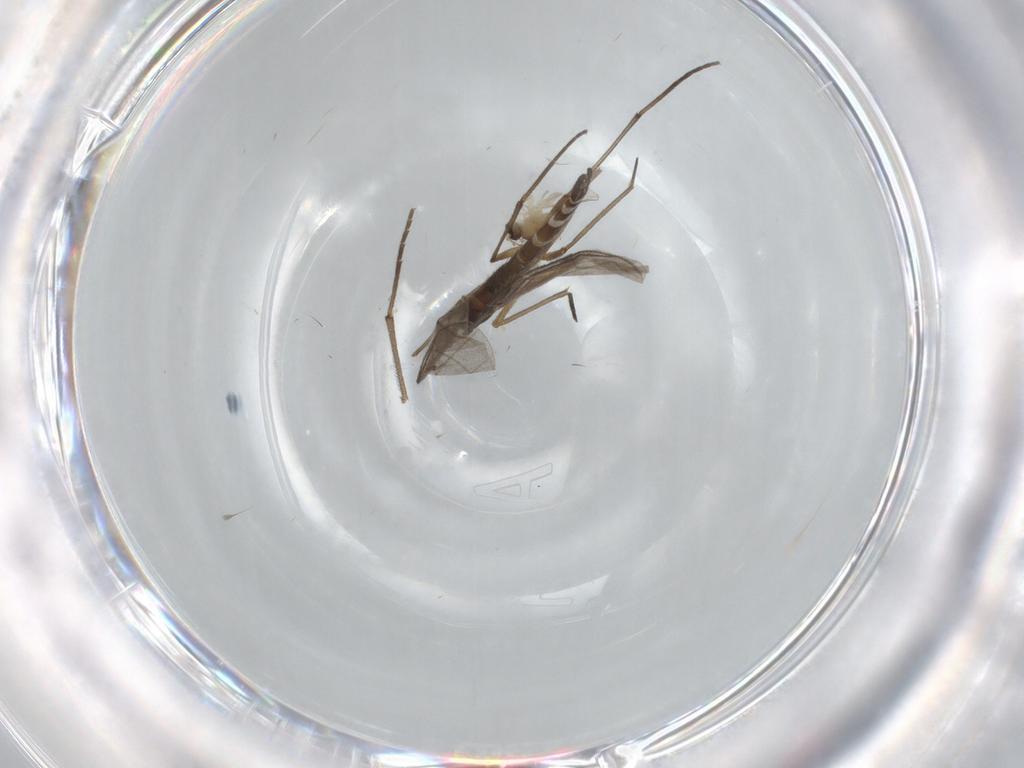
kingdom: Animalia
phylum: Arthropoda
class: Insecta
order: Diptera
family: Sciaridae
